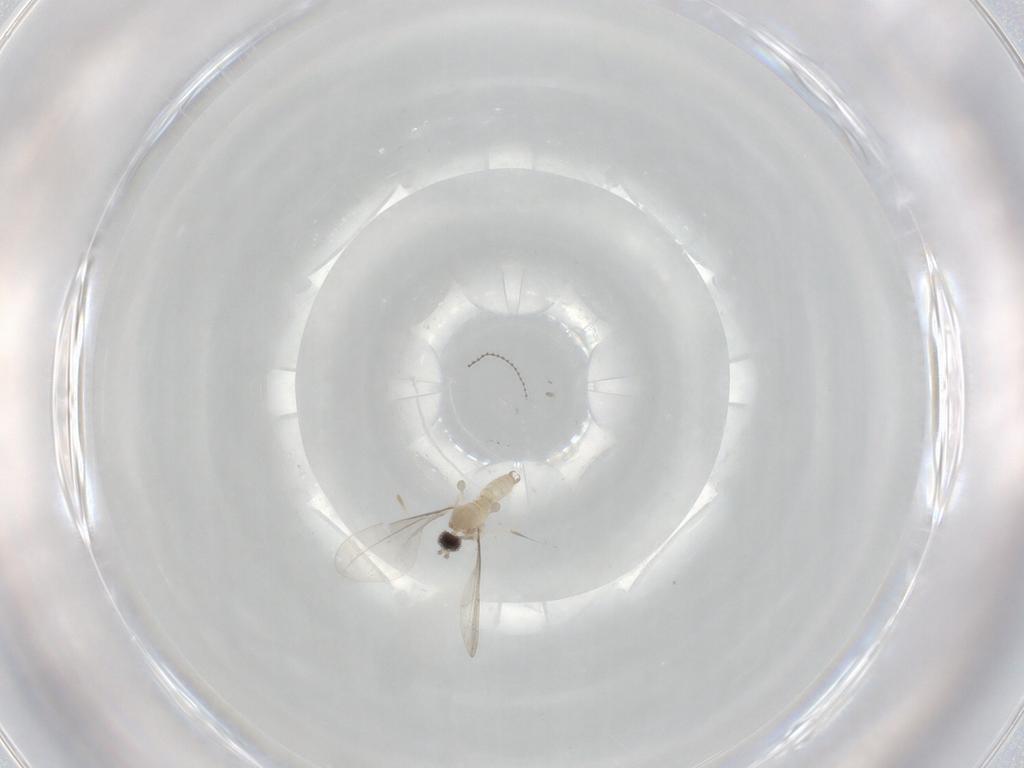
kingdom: Animalia
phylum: Arthropoda
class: Insecta
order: Diptera
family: Cecidomyiidae
